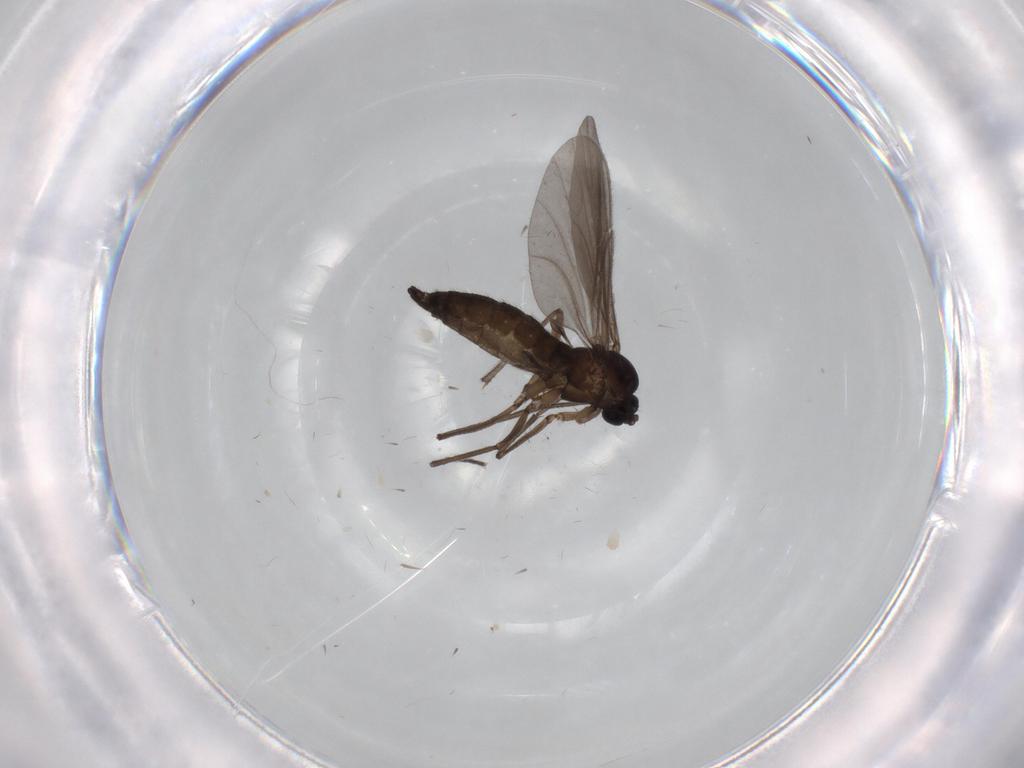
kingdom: Animalia
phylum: Arthropoda
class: Insecta
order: Diptera
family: Sciaridae
